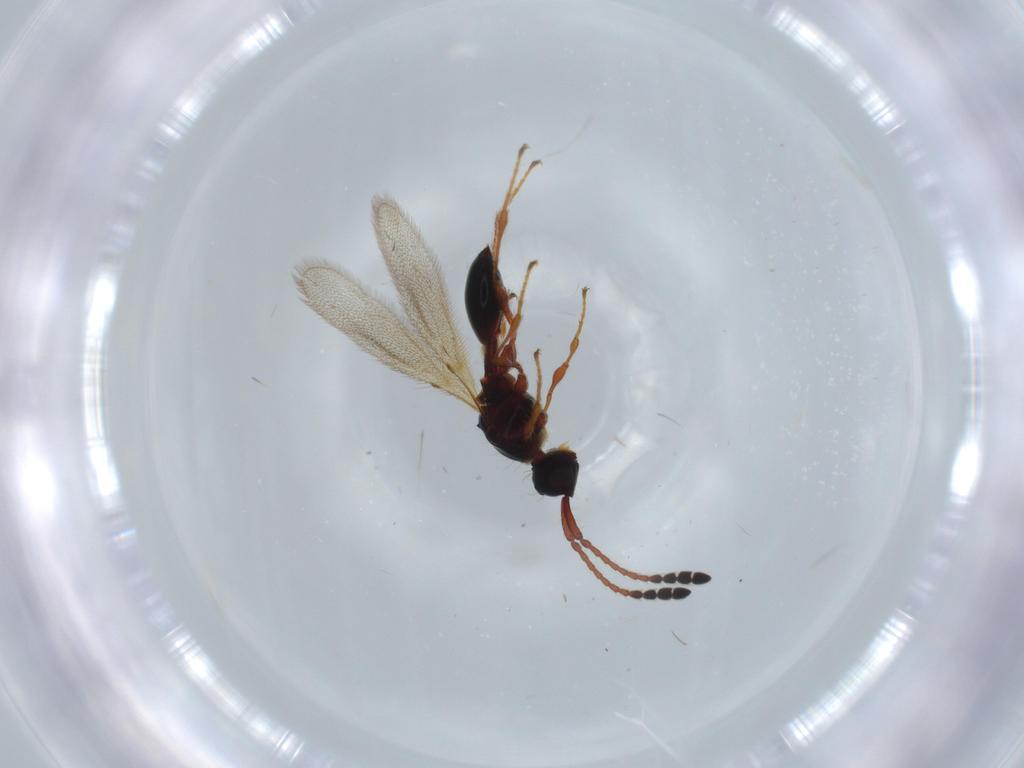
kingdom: Animalia
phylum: Arthropoda
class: Insecta
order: Hymenoptera
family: Diapriidae
